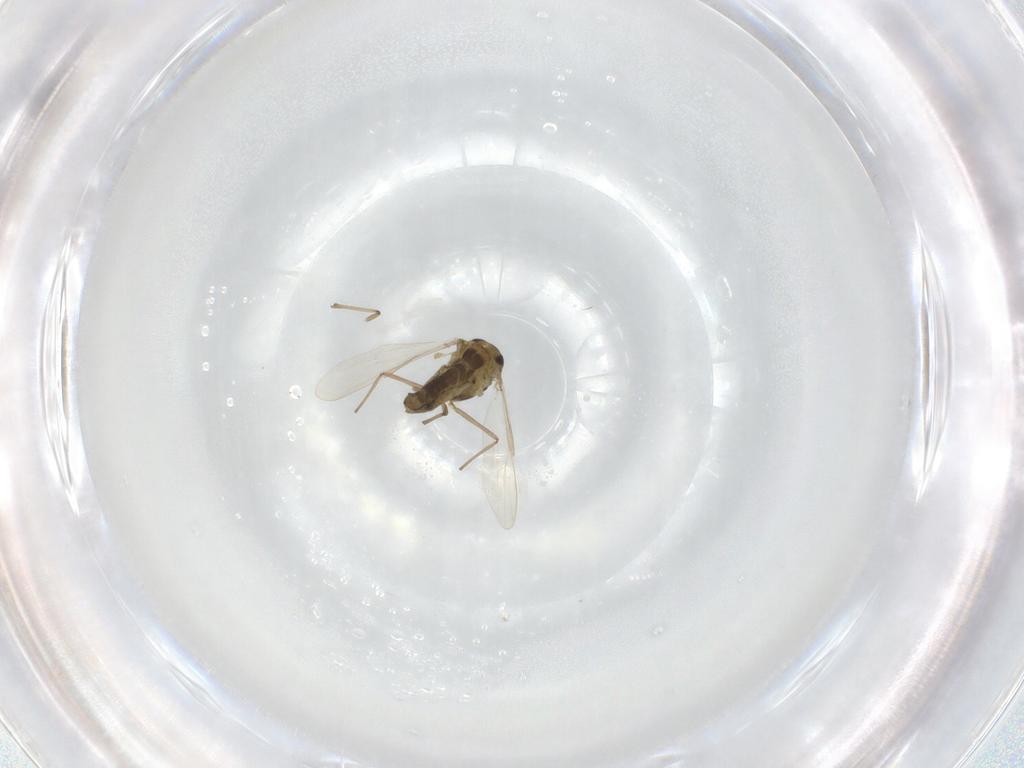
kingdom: Animalia
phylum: Arthropoda
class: Insecta
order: Diptera
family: Chironomidae
